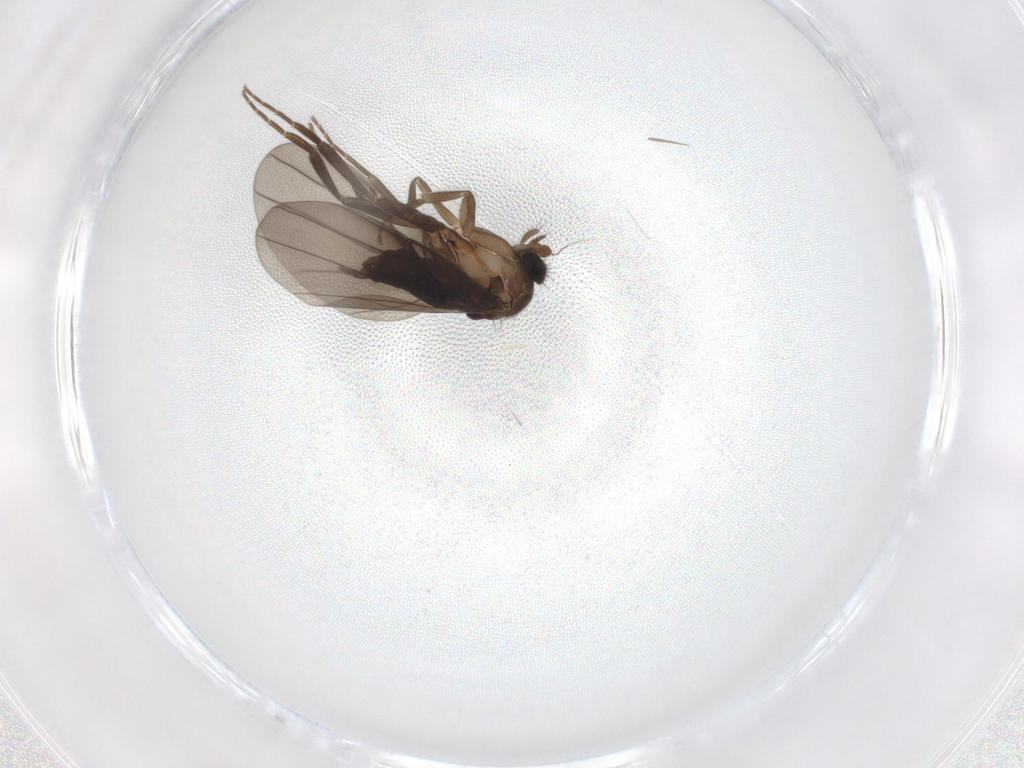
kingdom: Animalia
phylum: Arthropoda
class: Insecta
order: Diptera
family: Phoridae
